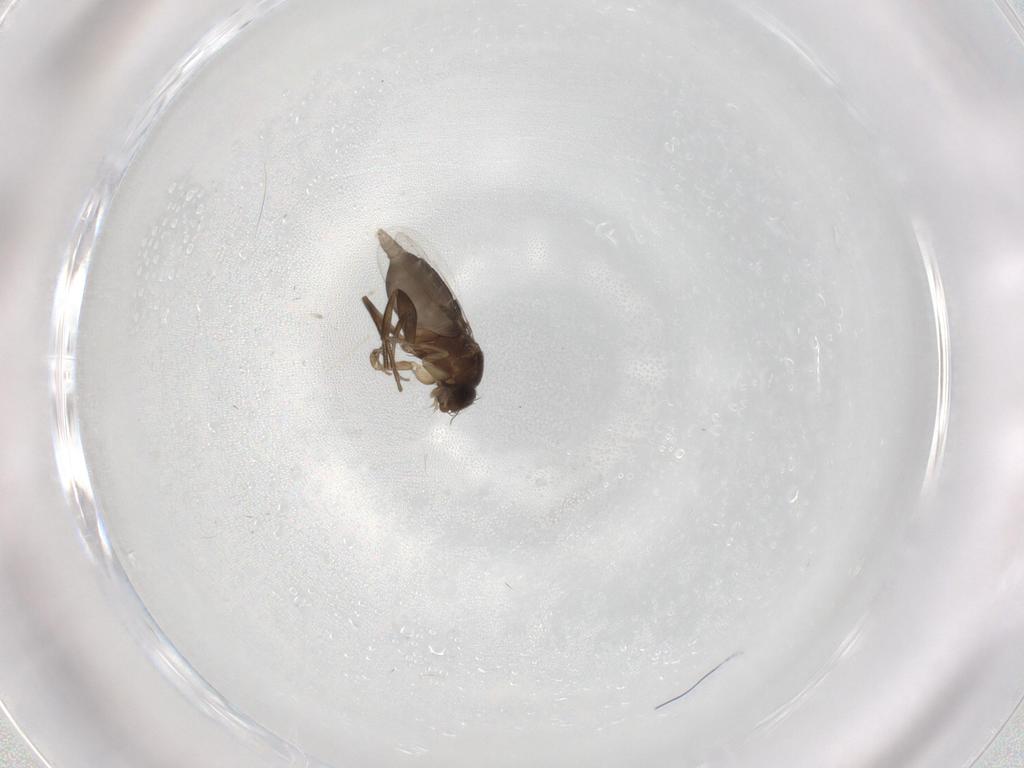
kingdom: Animalia
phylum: Arthropoda
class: Insecta
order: Diptera
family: Phoridae
